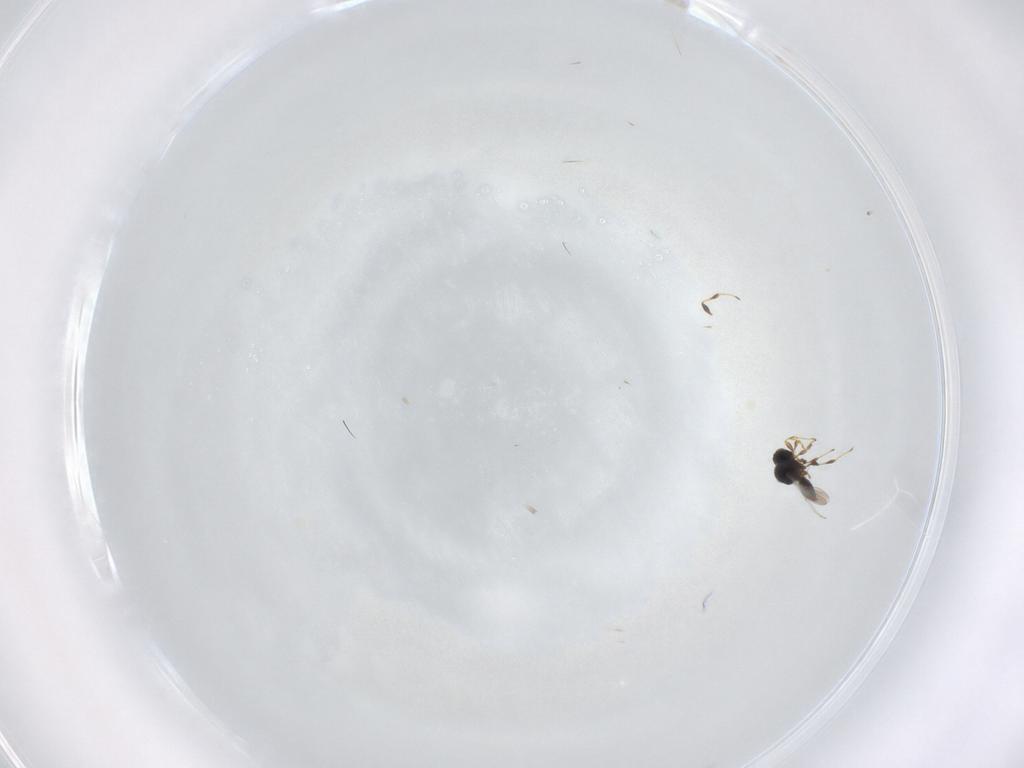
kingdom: Animalia
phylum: Arthropoda
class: Insecta
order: Hymenoptera
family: Platygastridae
